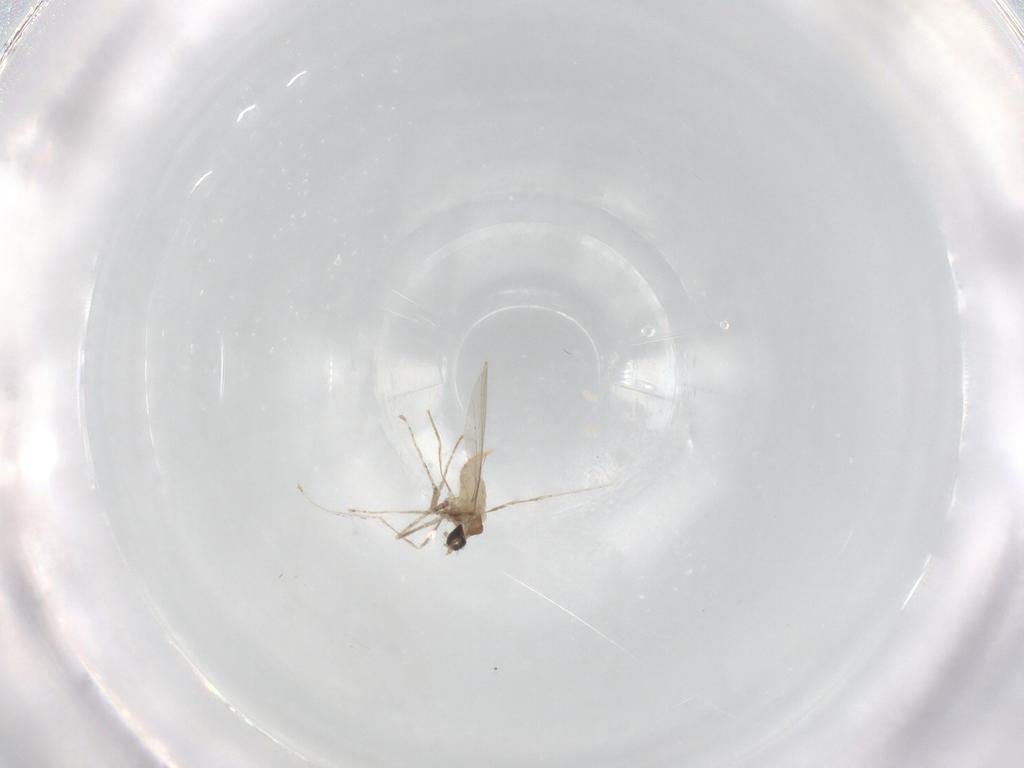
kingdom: Animalia
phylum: Arthropoda
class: Insecta
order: Diptera
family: Cecidomyiidae
